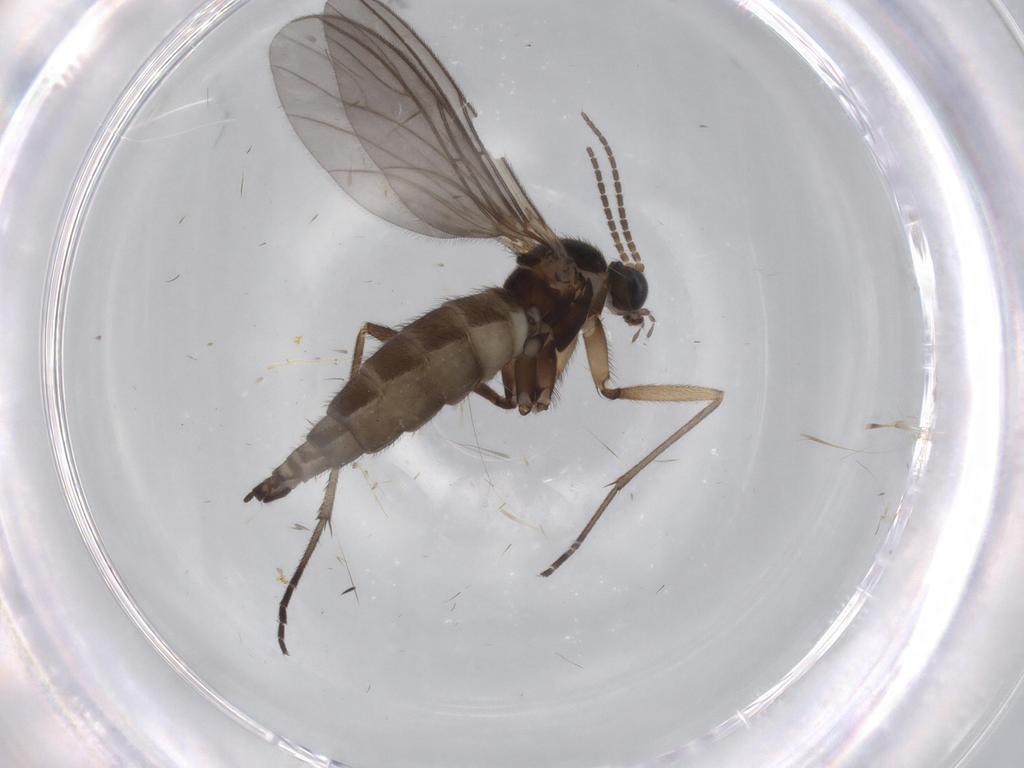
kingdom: Animalia
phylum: Arthropoda
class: Insecta
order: Diptera
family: Sciaridae
